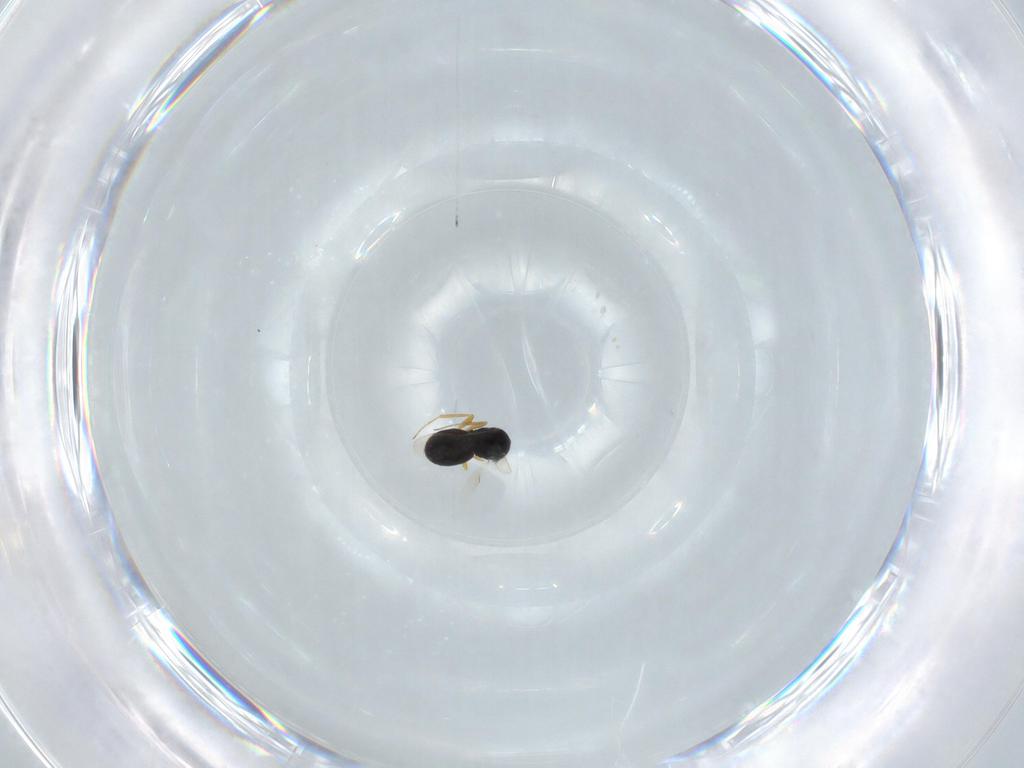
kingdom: Animalia
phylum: Arthropoda
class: Insecta
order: Hymenoptera
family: Scelionidae
